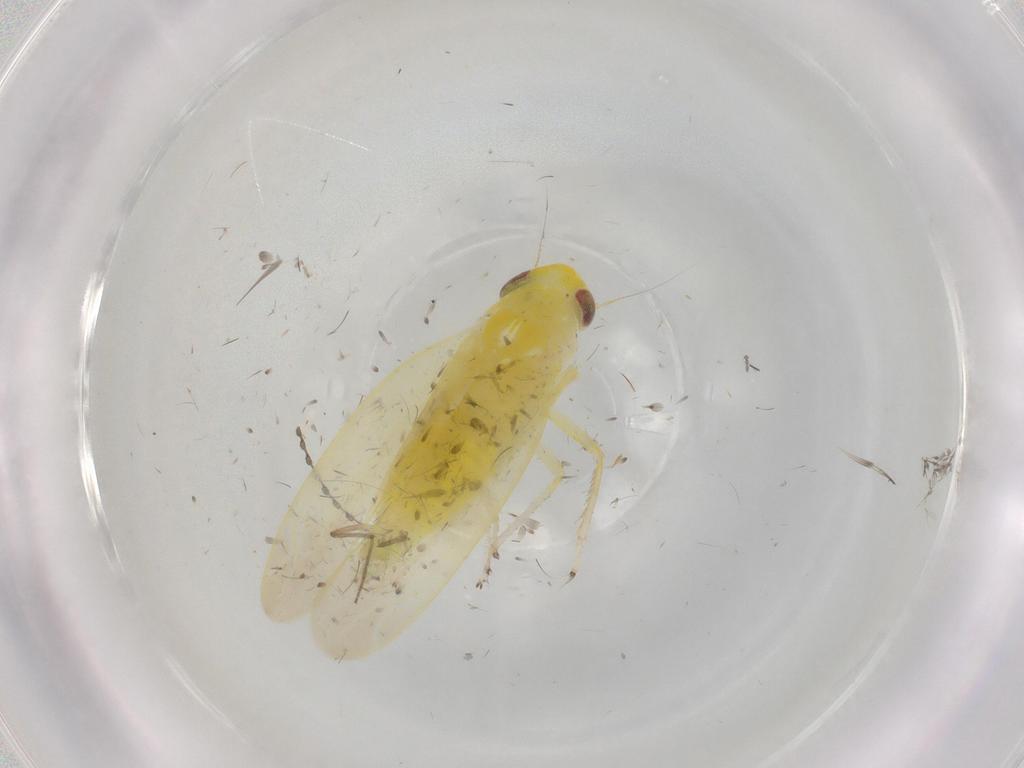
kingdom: Animalia
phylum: Arthropoda
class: Insecta
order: Hemiptera
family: Cicadellidae
